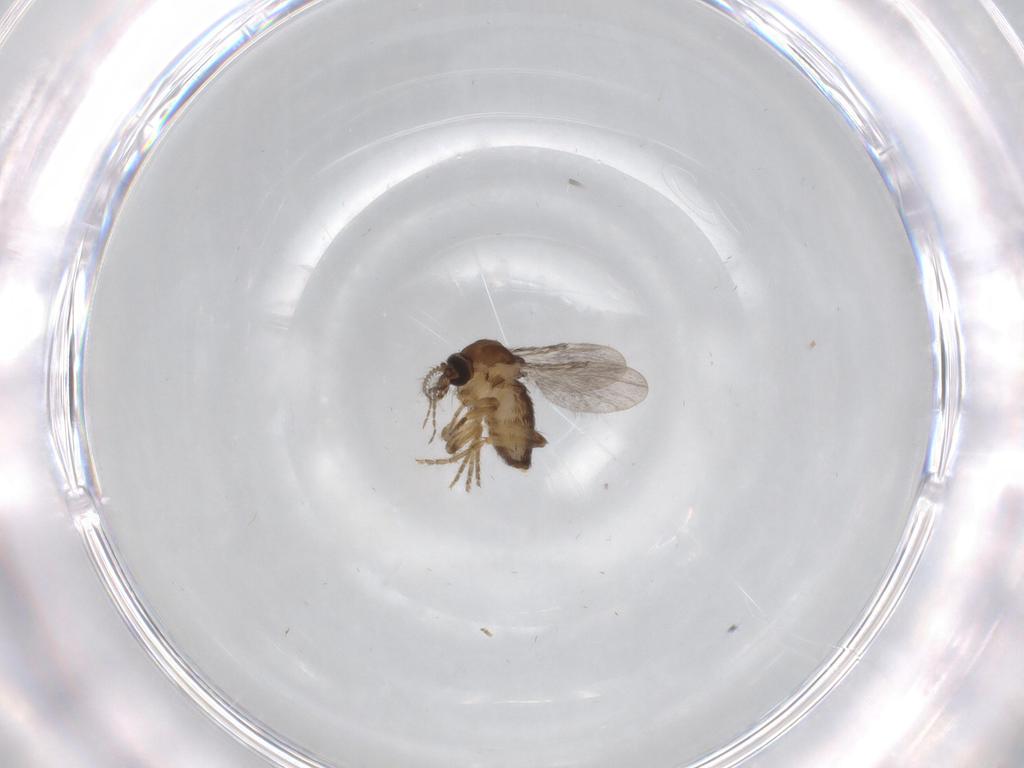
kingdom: Animalia
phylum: Arthropoda
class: Insecta
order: Diptera
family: Ceratopogonidae
